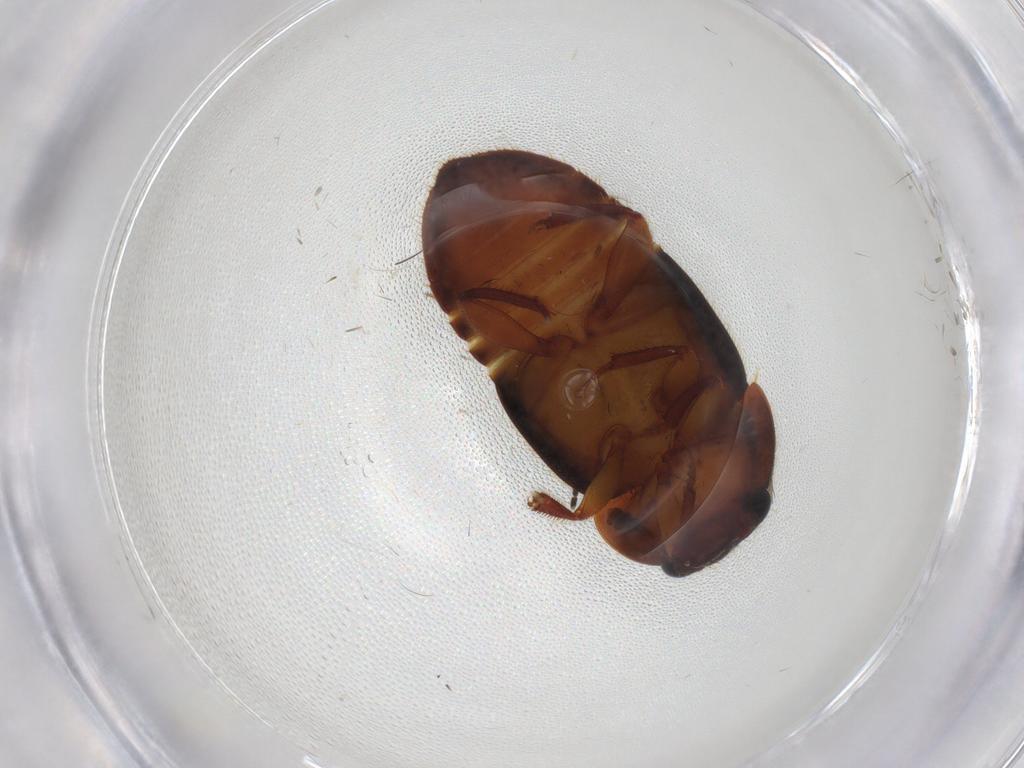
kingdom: Animalia
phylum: Arthropoda
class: Insecta
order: Coleoptera
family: Nitidulidae
